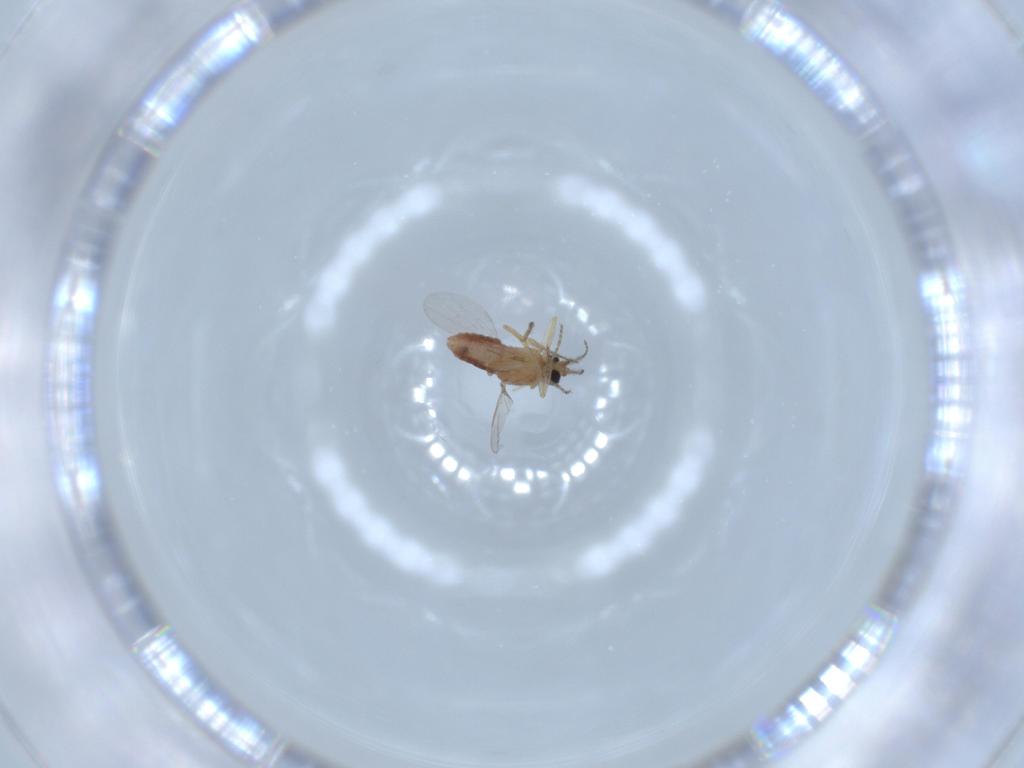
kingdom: Animalia
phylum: Arthropoda
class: Insecta
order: Diptera
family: Ceratopogonidae
